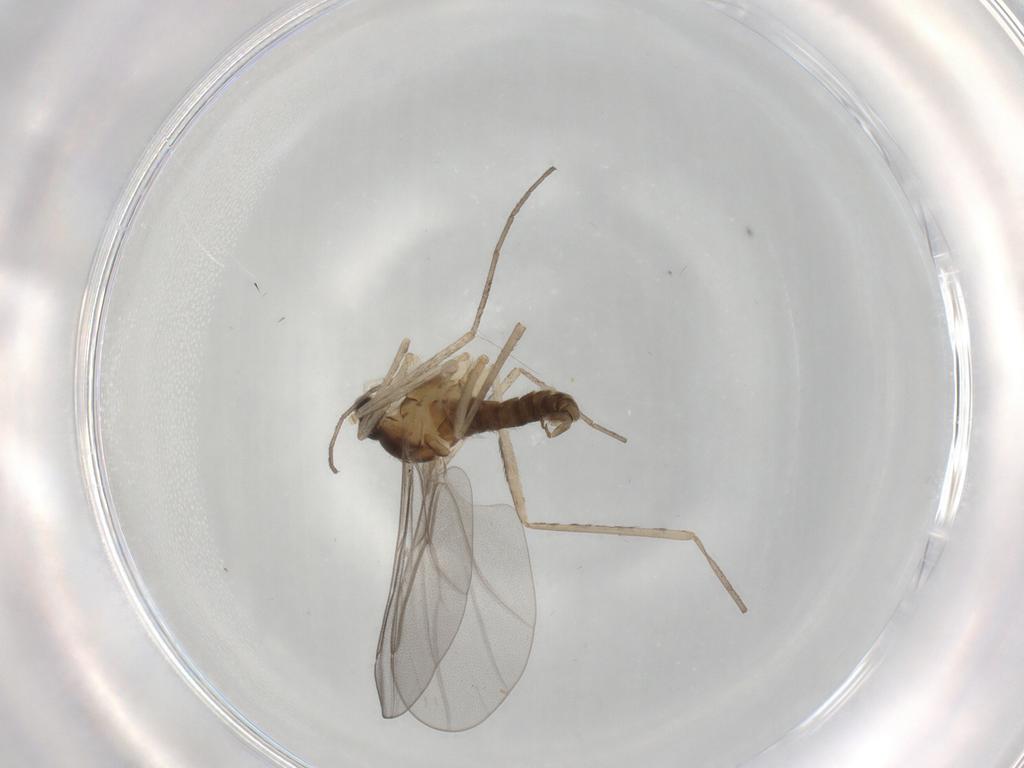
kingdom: Animalia
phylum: Arthropoda
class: Insecta
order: Diptera
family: Cecidomyiidae
